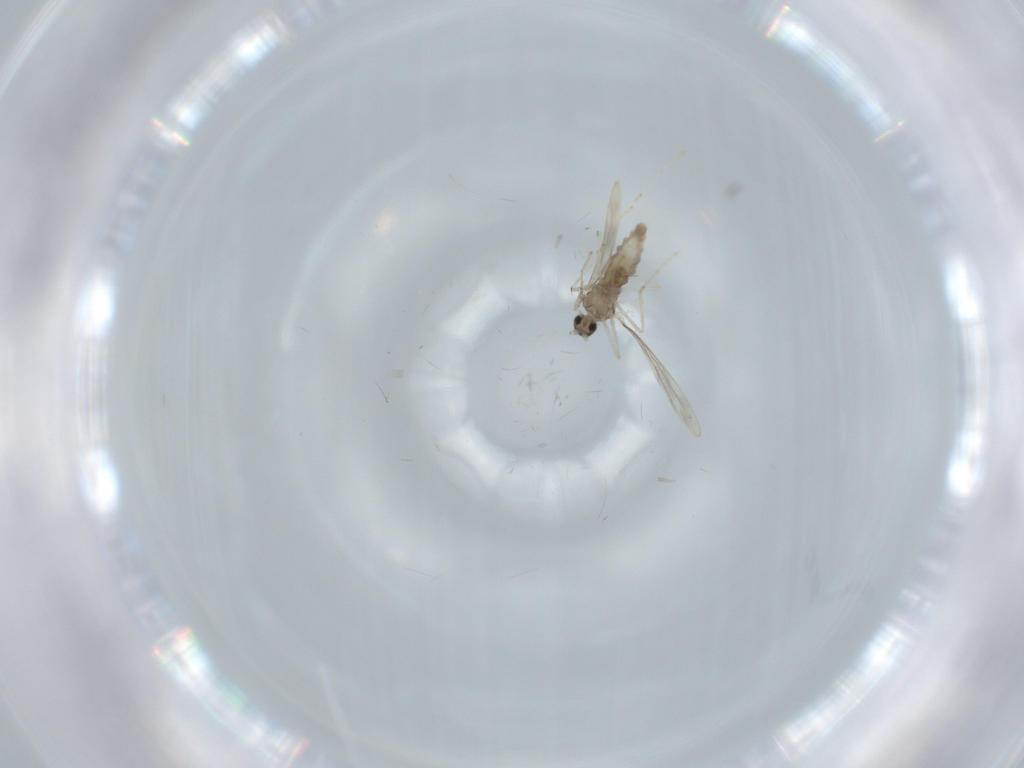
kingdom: Animalia
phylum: Arthropoda
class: Insecta
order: Diptera
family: Cecidomyiidae
